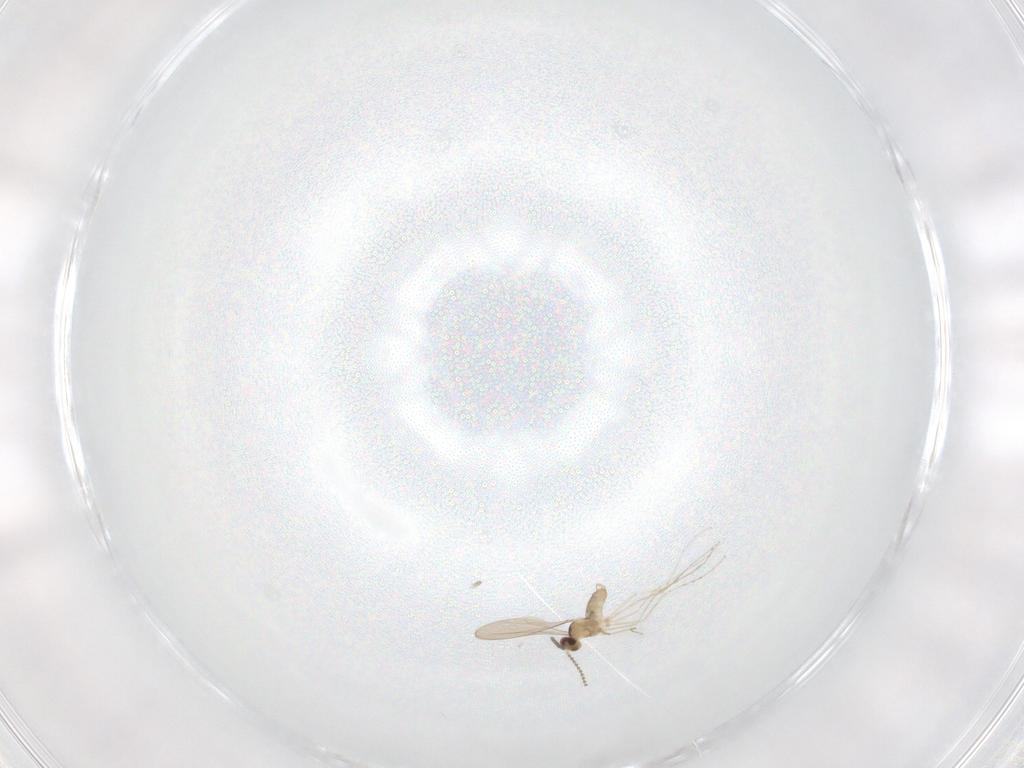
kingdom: Animalia
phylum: Arthropoda
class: Insecta
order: Diptera
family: Cecidomyiidae
